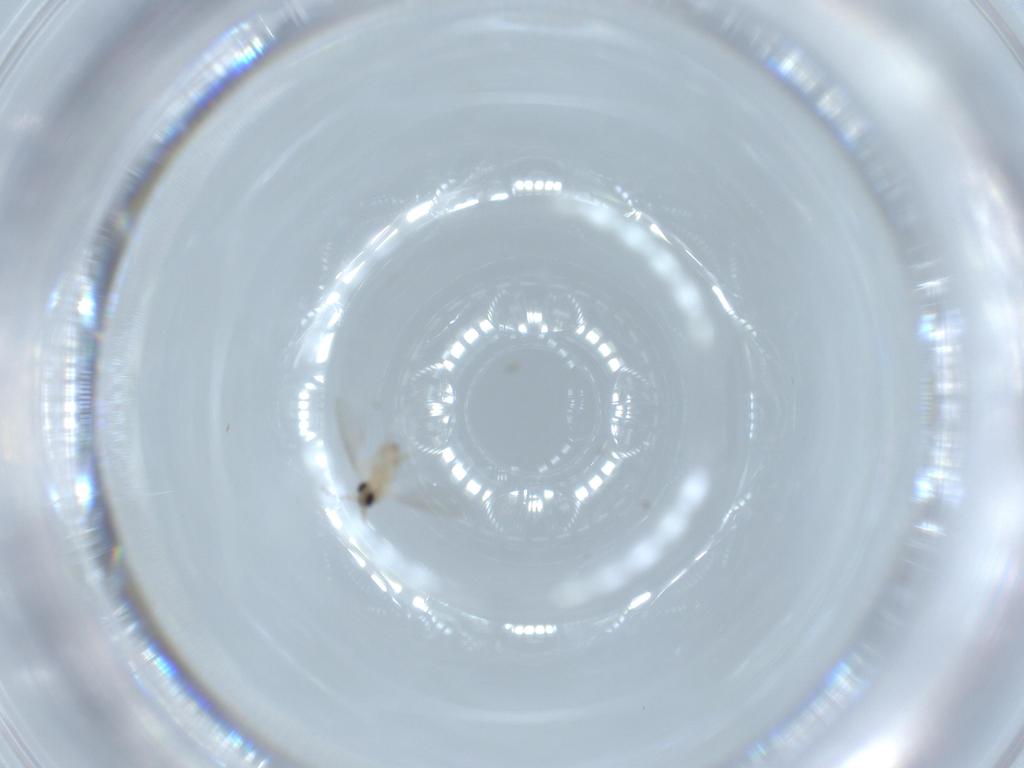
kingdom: Animalia
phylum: Arthropoda
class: Insecta
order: Diptera
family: Cecidomyiidae
